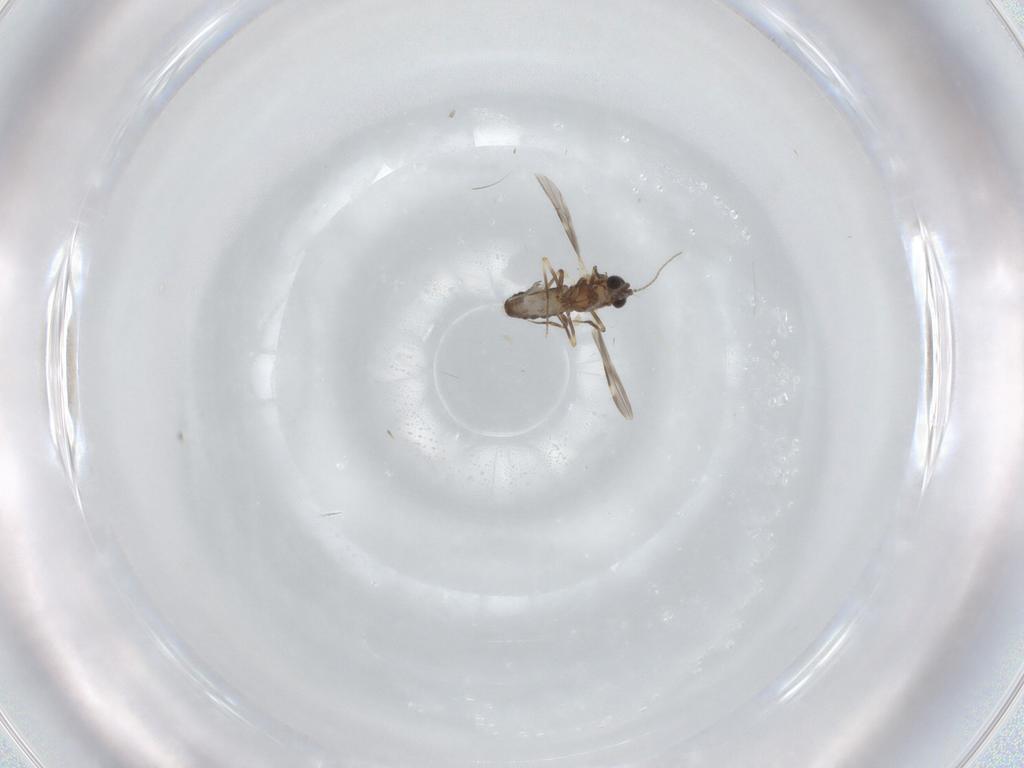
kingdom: Animalia
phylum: Arthropoda
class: Insecta
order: Diptera
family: Ceratopogonidae
